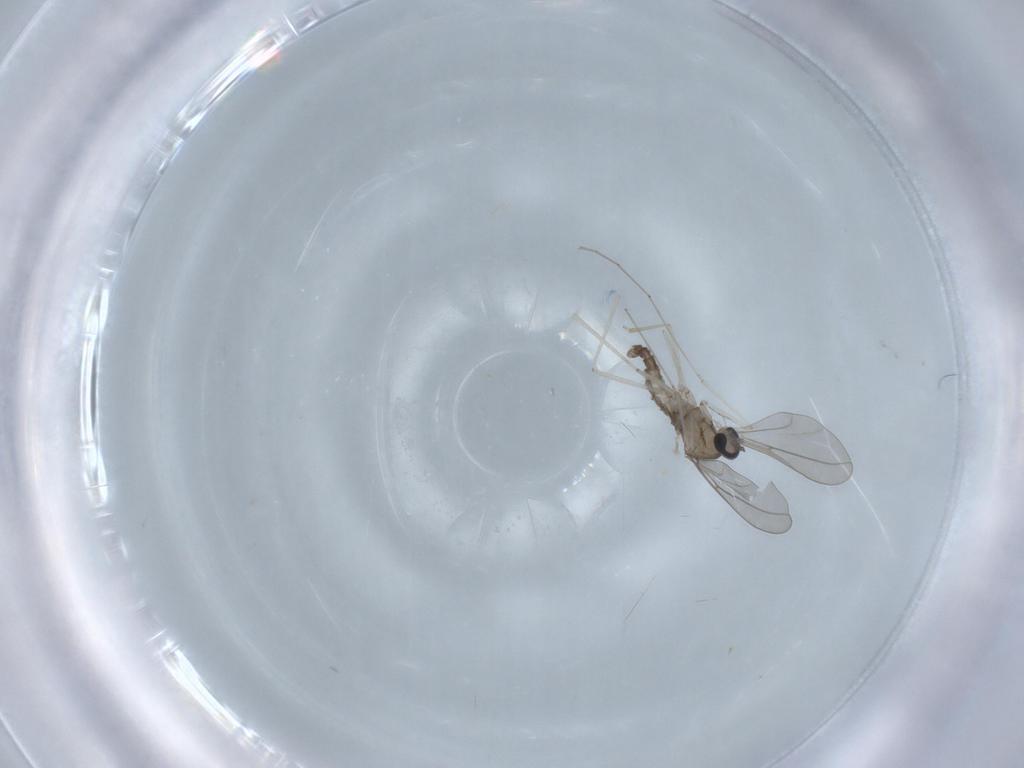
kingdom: Animalia
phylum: Arthropoda
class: Insecta
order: Diptera
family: Cecidomyiidae
